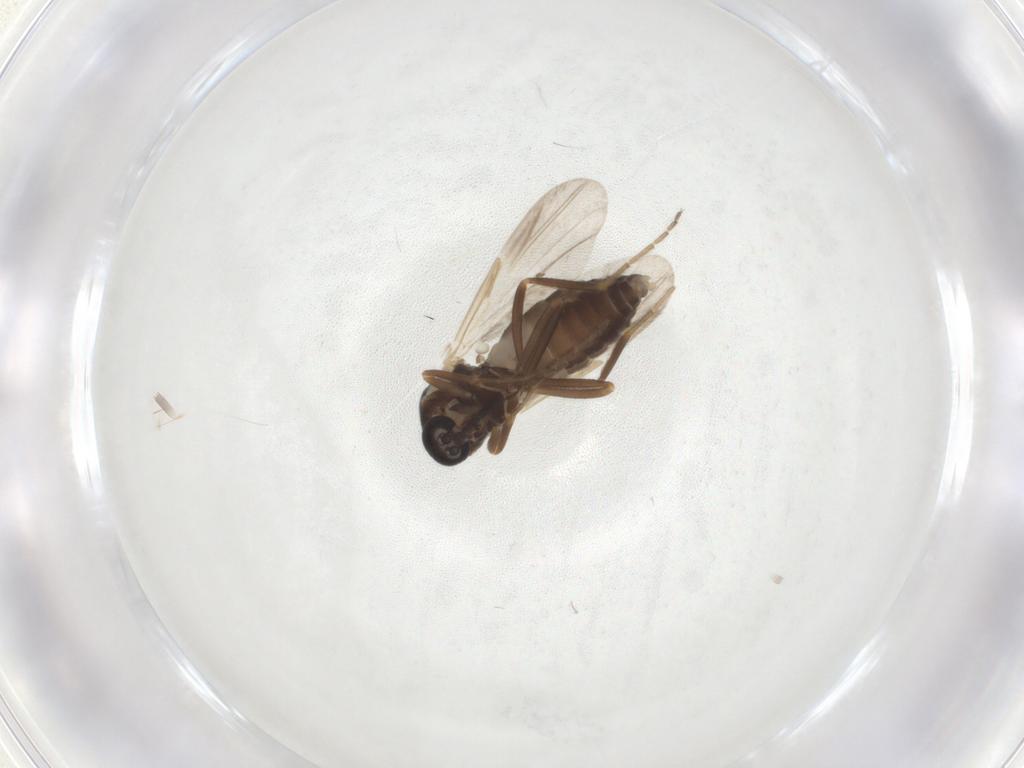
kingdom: Animalia
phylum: Arthropoda
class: Insecta
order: Diptera
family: Ceratopogonidae
